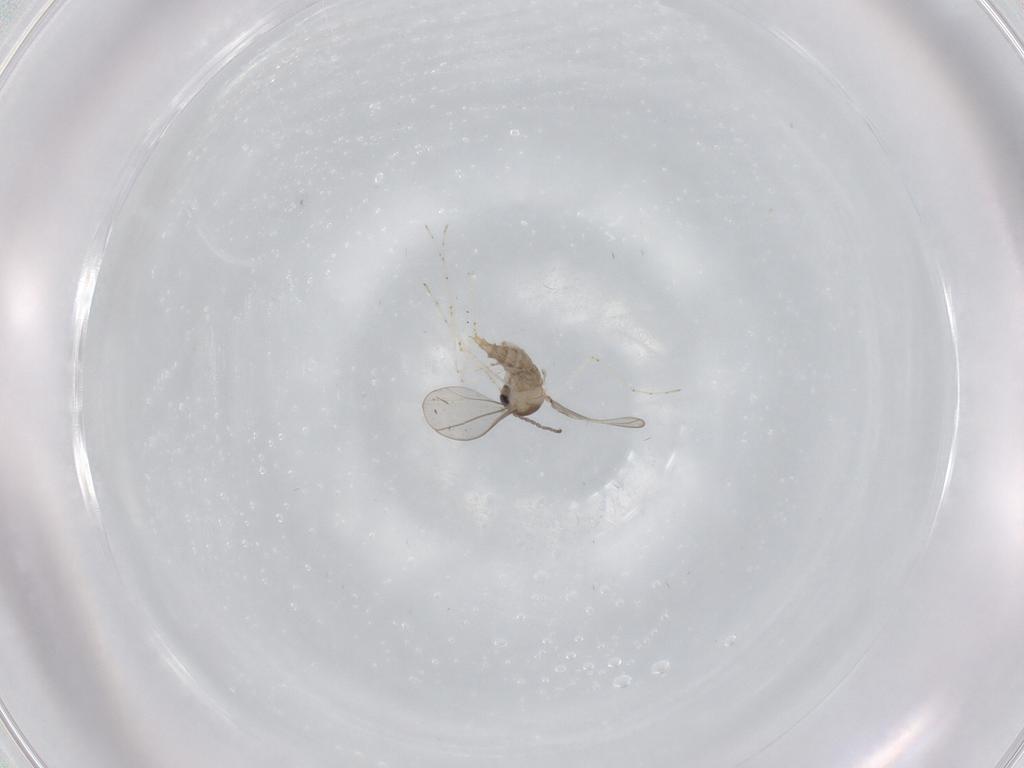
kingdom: Animalia
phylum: Arthropoda
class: Insecta
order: Diptera
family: Cecidomyiidae
